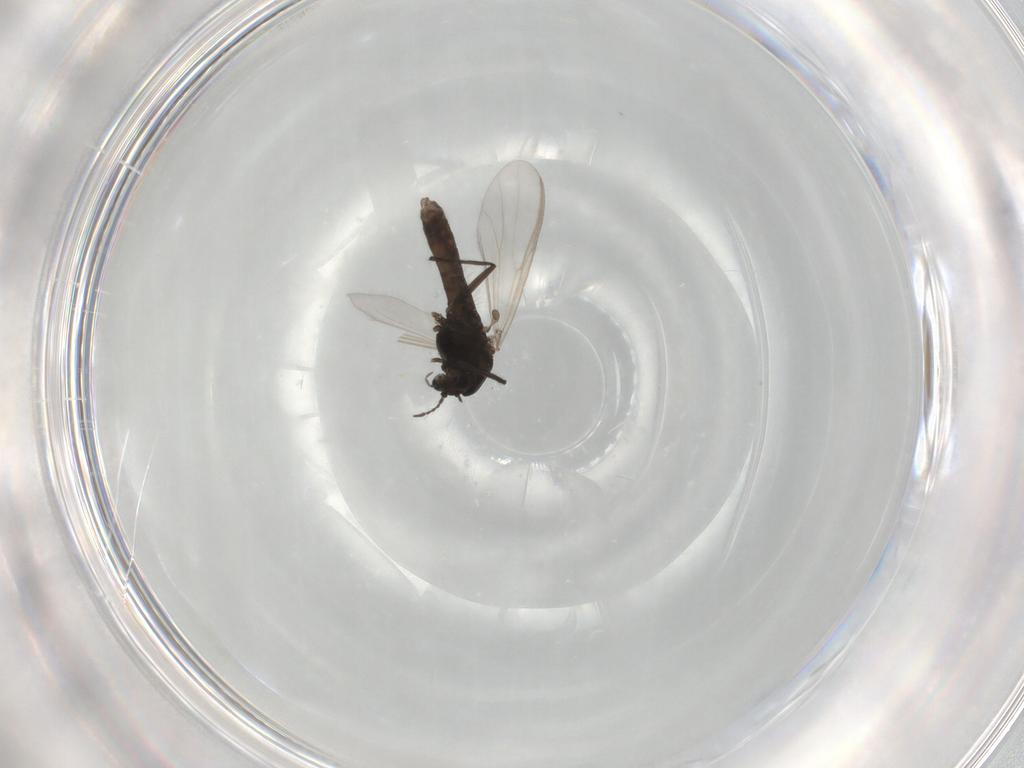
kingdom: Animalia
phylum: Arthropoda
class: Insecta
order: Diptera
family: Chironomidae
